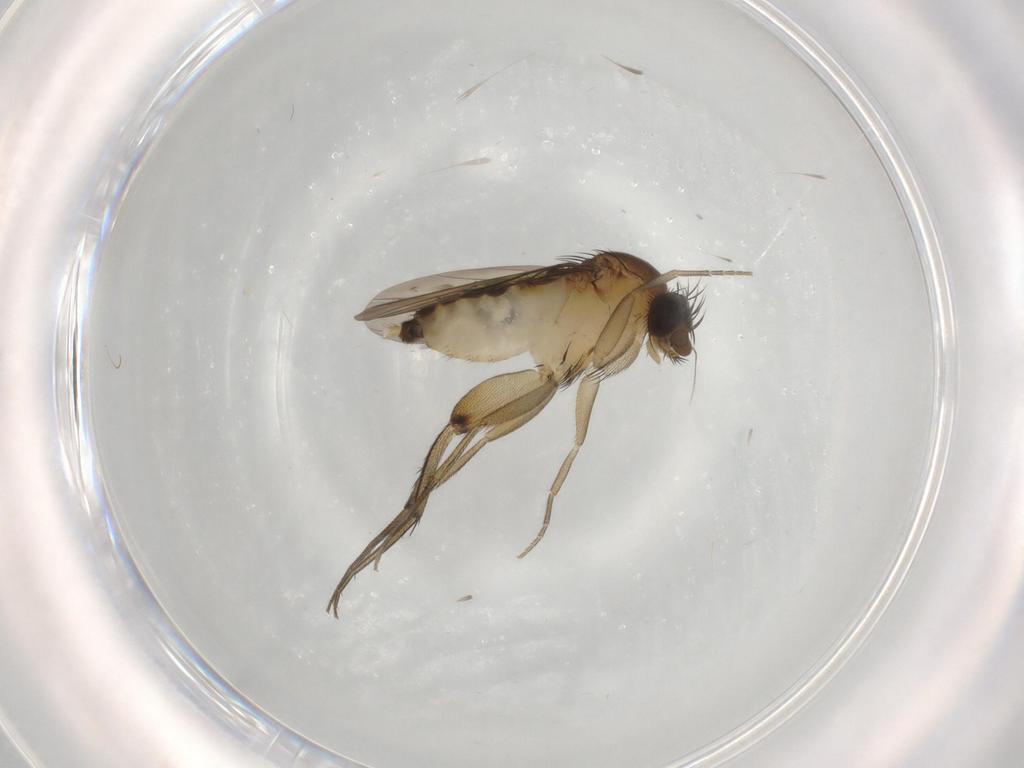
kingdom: Animalia
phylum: Arthropoda
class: Insecta
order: Diptera
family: Phoridae
